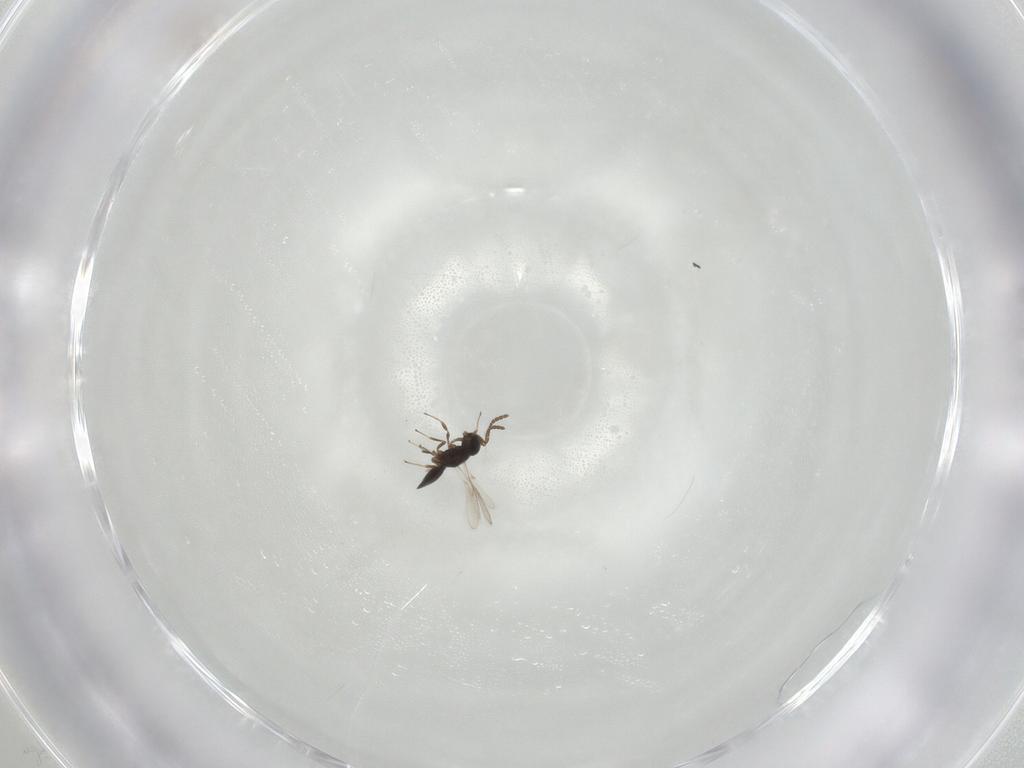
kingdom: Animalia
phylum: Arthropoda
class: Insecta
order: Hymenoptera
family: Scelionidae
